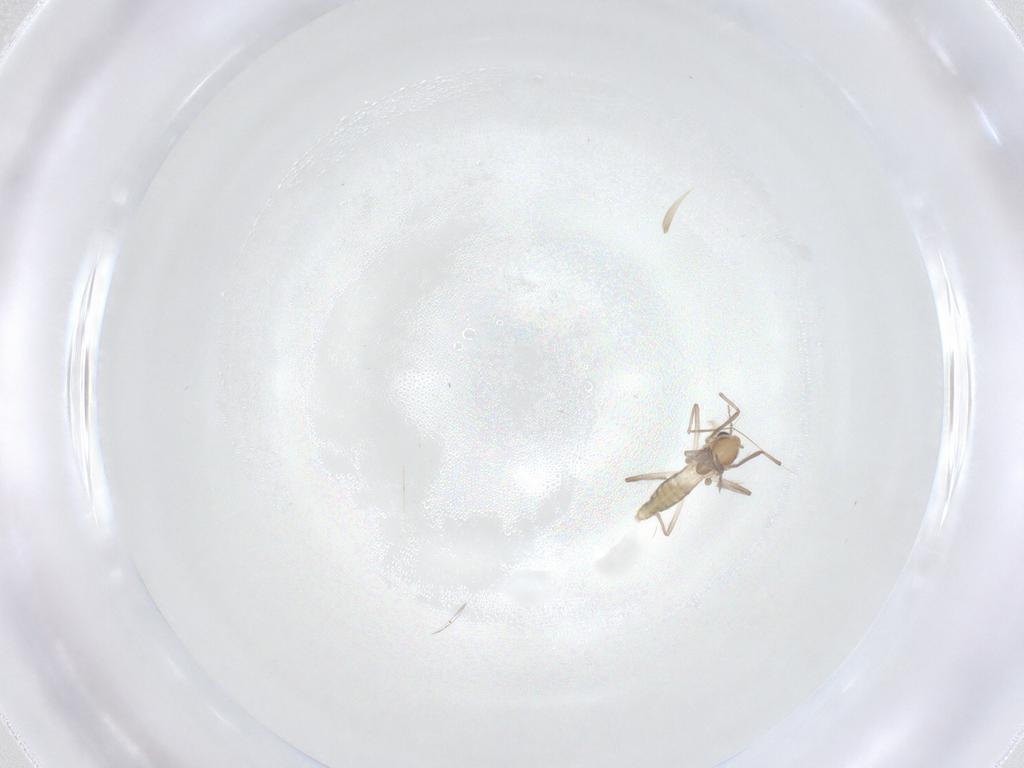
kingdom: Animalia
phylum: Arthropoda
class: Insecta
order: Diptera
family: Chironomidae
